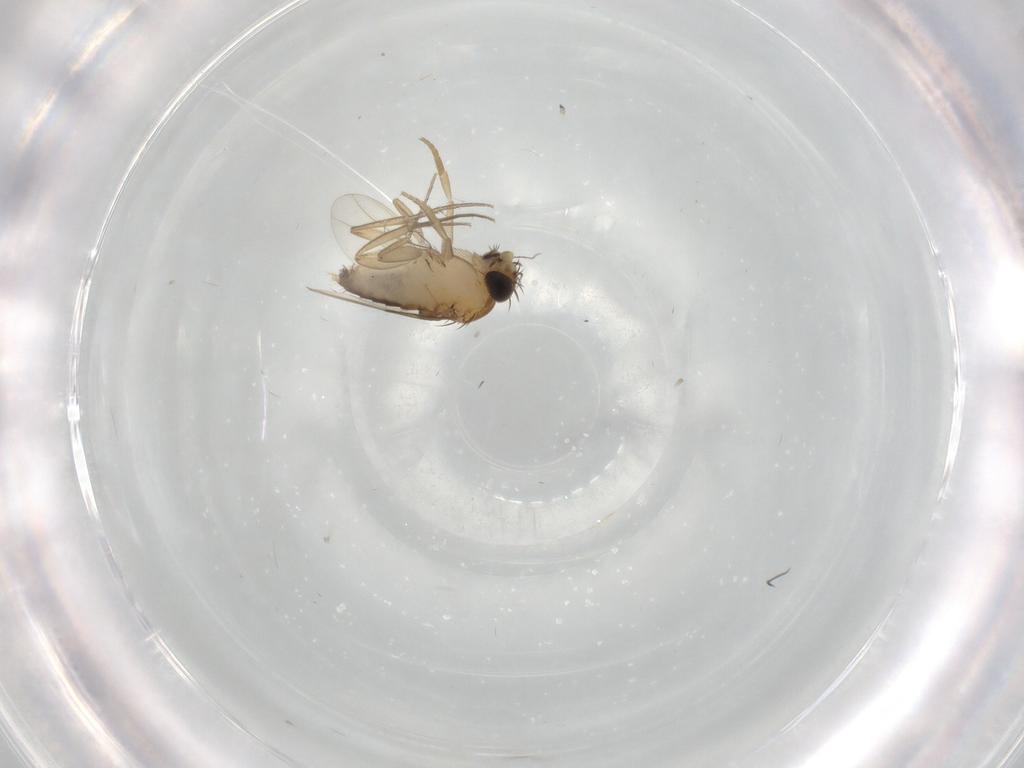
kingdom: Animalia
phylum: Arthropoda
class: Insecta
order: Diptera
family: Phoridae
